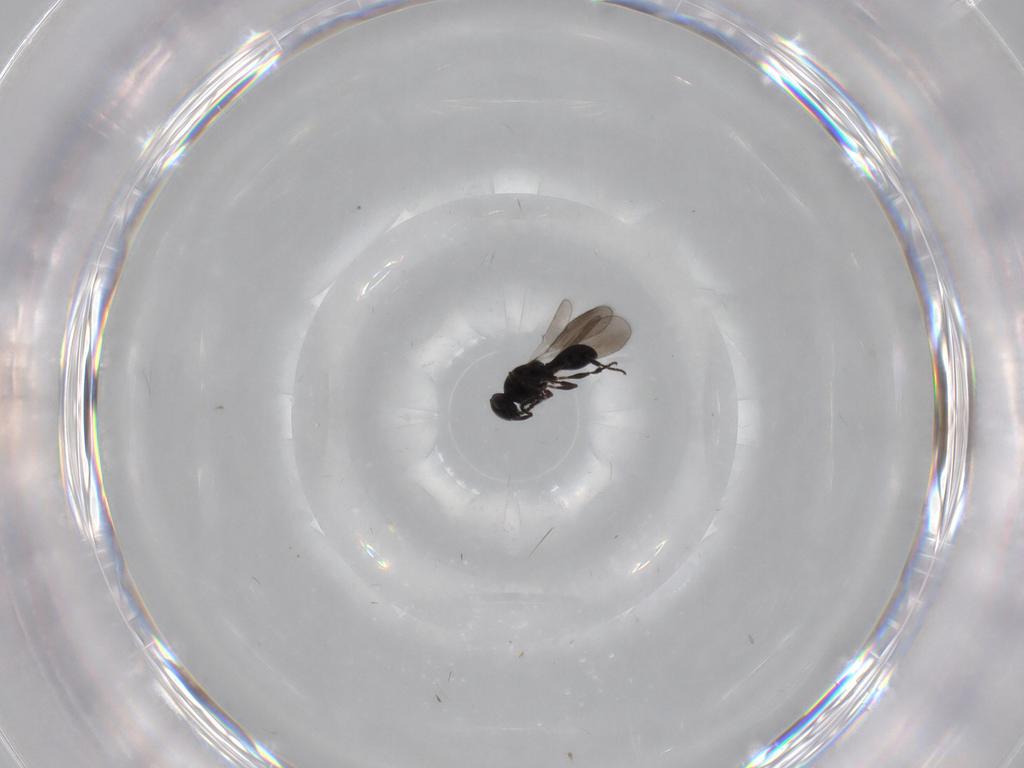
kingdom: Animalia
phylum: Arthropoda
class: Insecta
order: Hymenoptera
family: Platygastridae
